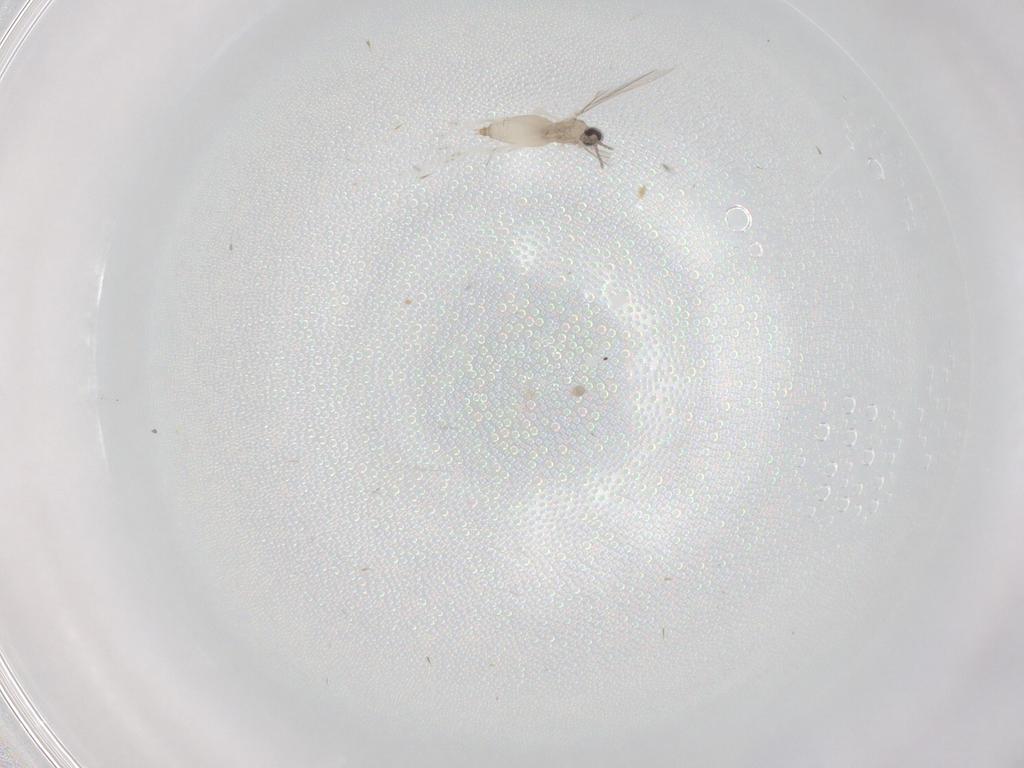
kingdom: Animalia
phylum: Arthropoda
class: Insecta
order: Diptera
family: Cecidomyiidae
